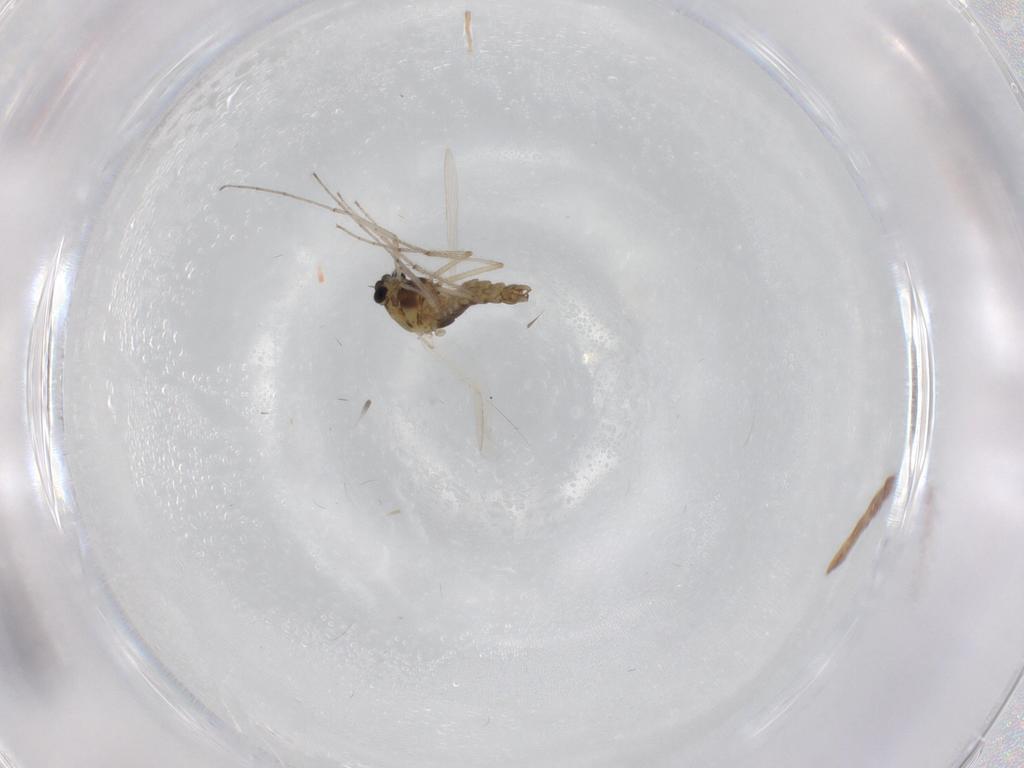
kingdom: Animalia
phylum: Arthropoda
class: Insecta
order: Diptera
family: Chironomidae
